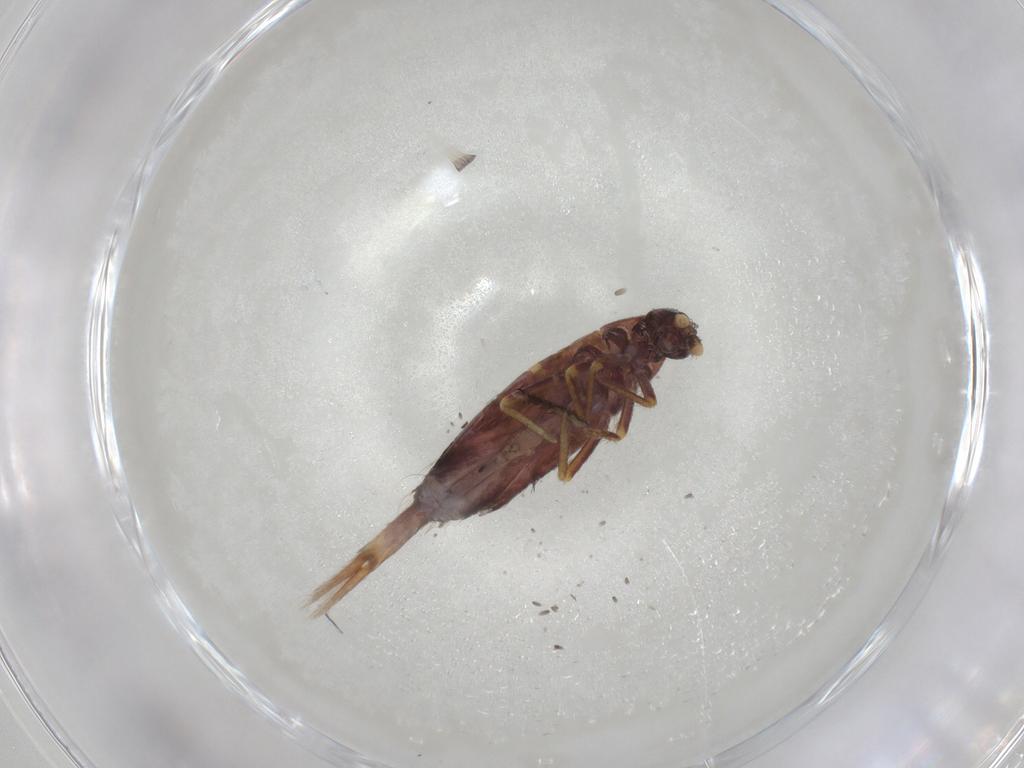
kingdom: Animalia
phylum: Arthropoda
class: Collembola
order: Entomobryomorpha
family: Entomobryidae
